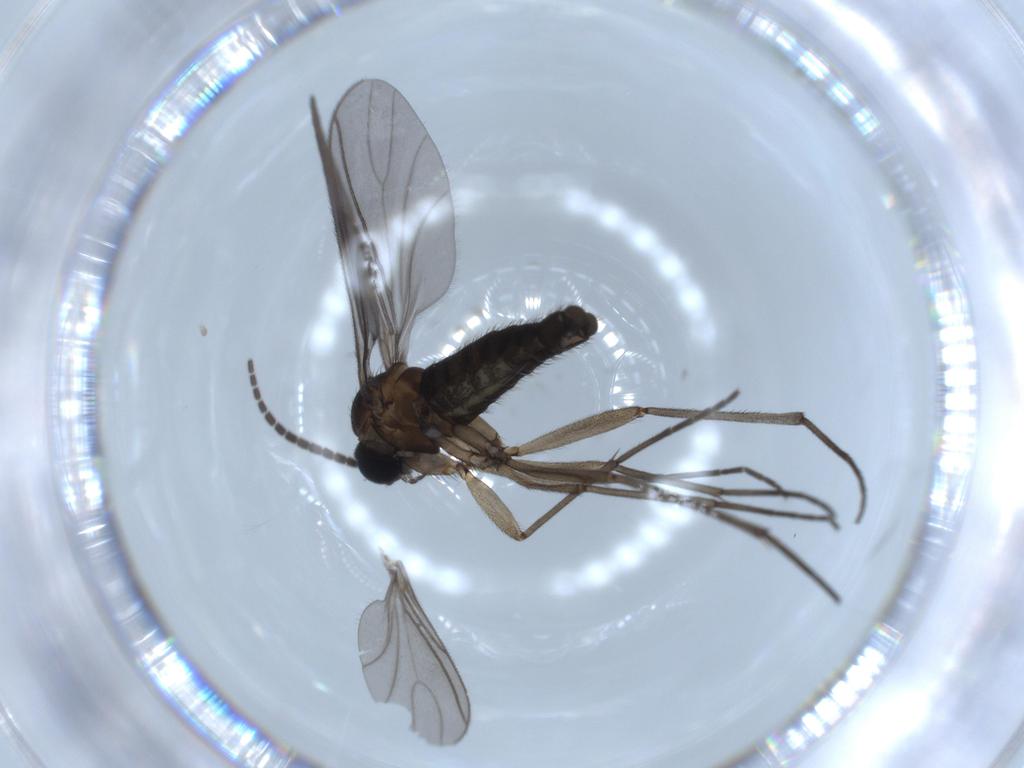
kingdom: Animalia
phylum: Arthropoda
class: Insecta
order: Diptera
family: Sciaridae
